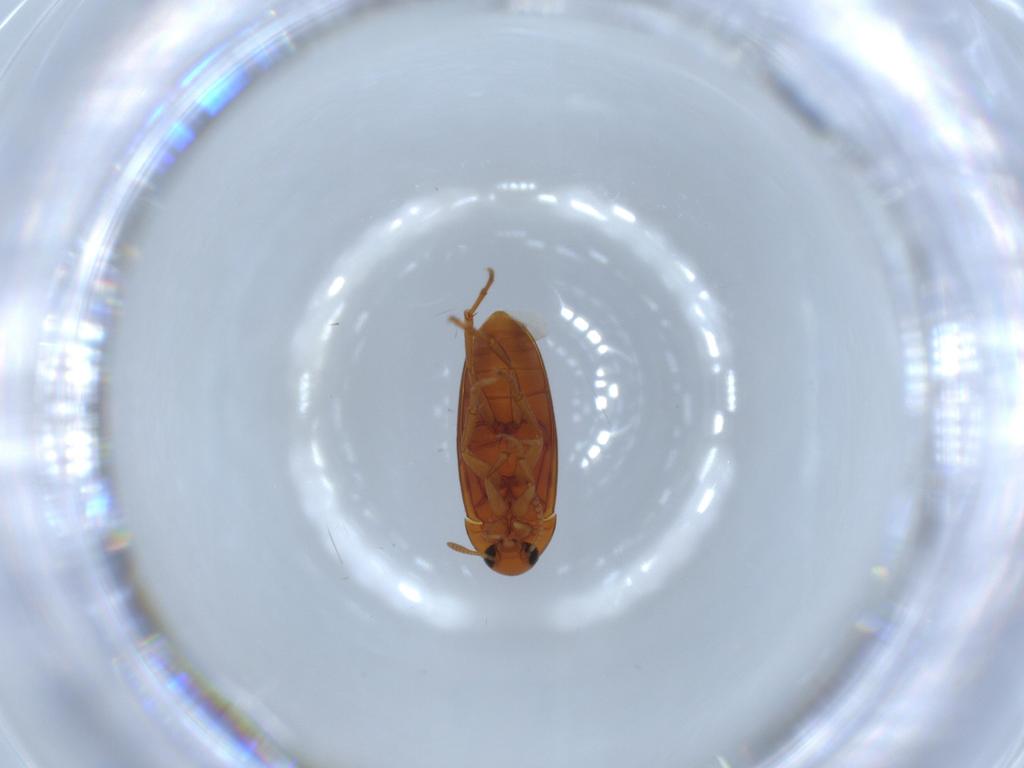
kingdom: Animalia
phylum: Arthropoda
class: Insecta
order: Coleoptera
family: Scraptiidae
